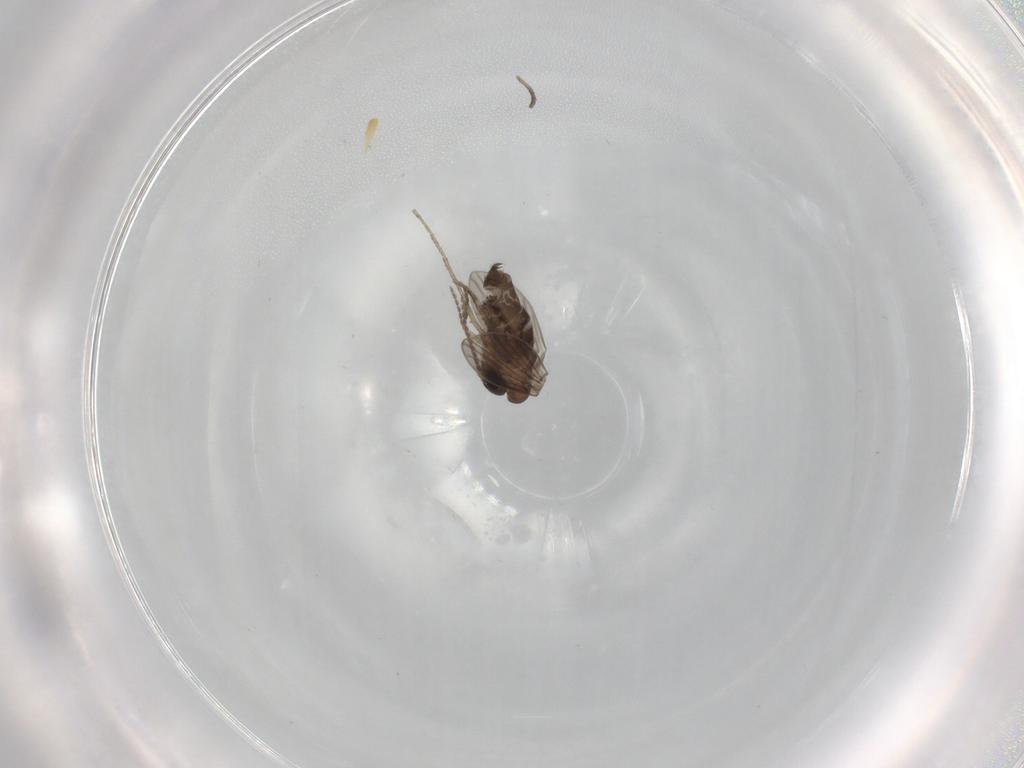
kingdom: Animalia
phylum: Arthropoda
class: Insecta
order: Diptera
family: Psychodidae
